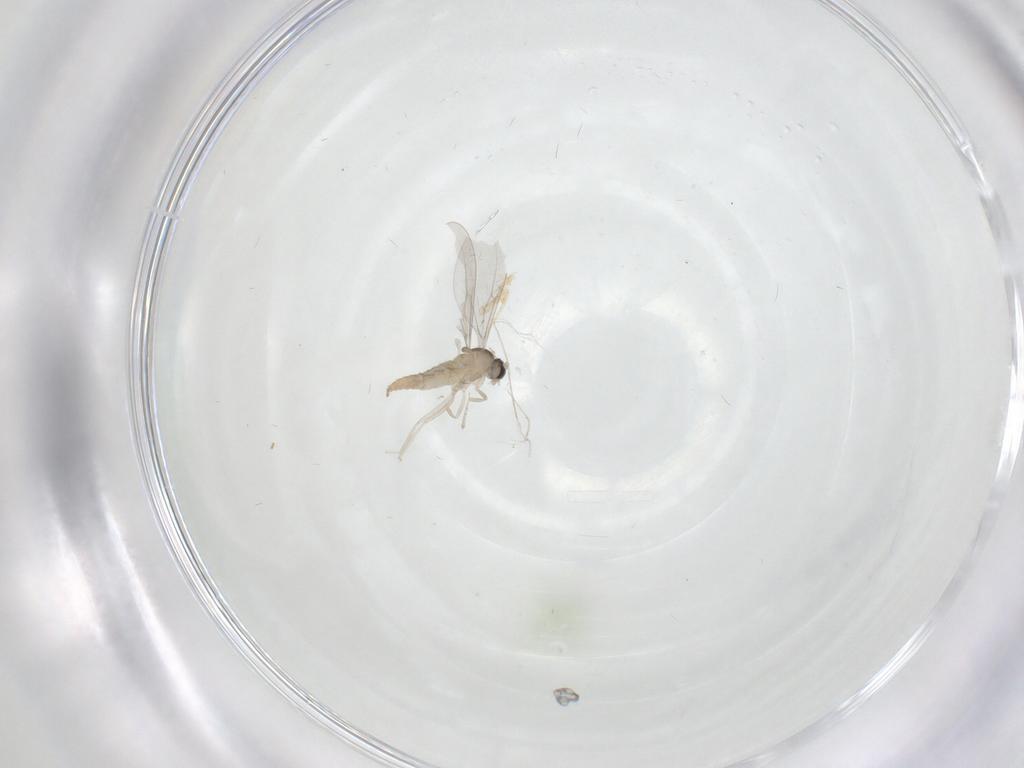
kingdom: Animalia
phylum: Arthropoda
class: Insecta
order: Diptera
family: Cecidomyiidae
